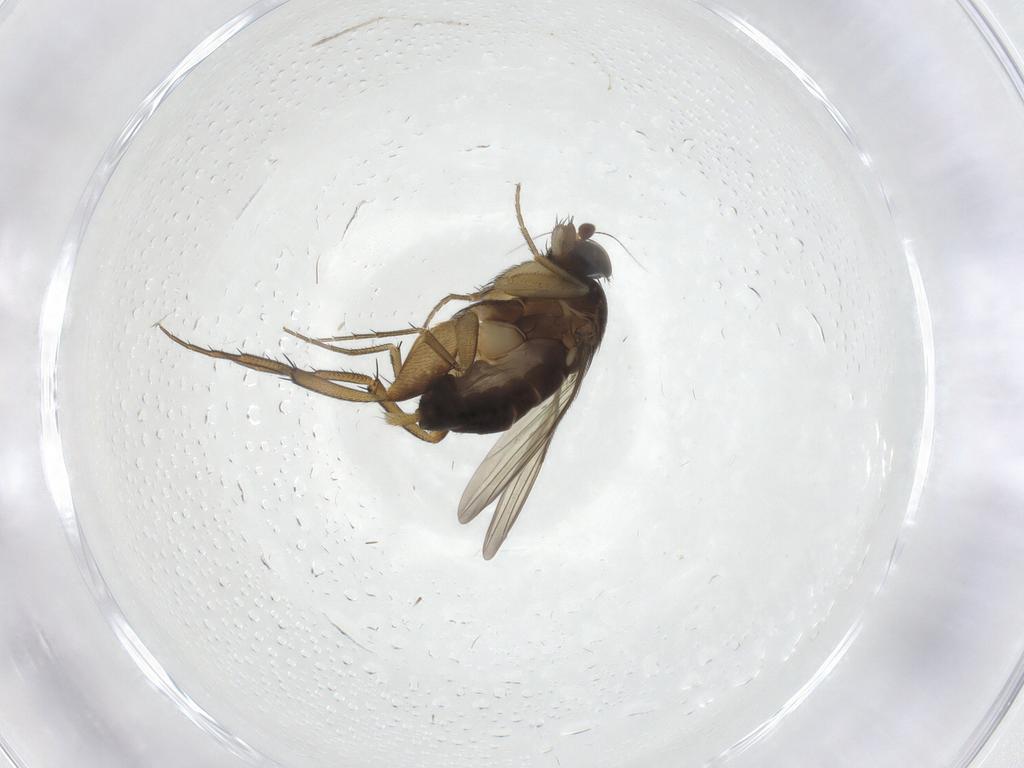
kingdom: Animalia
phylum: Arthropoda
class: Insecta
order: Diptera
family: Phoridae
